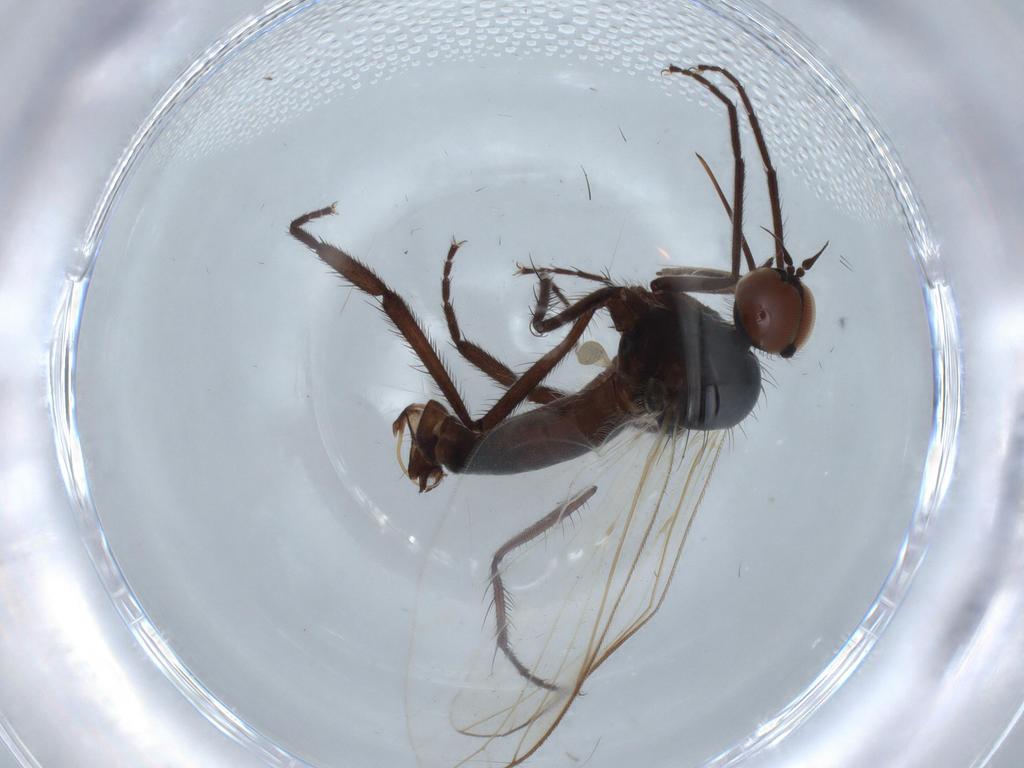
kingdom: Animalia
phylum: Arthropoda
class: Insecta
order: Diptera
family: Empididae
